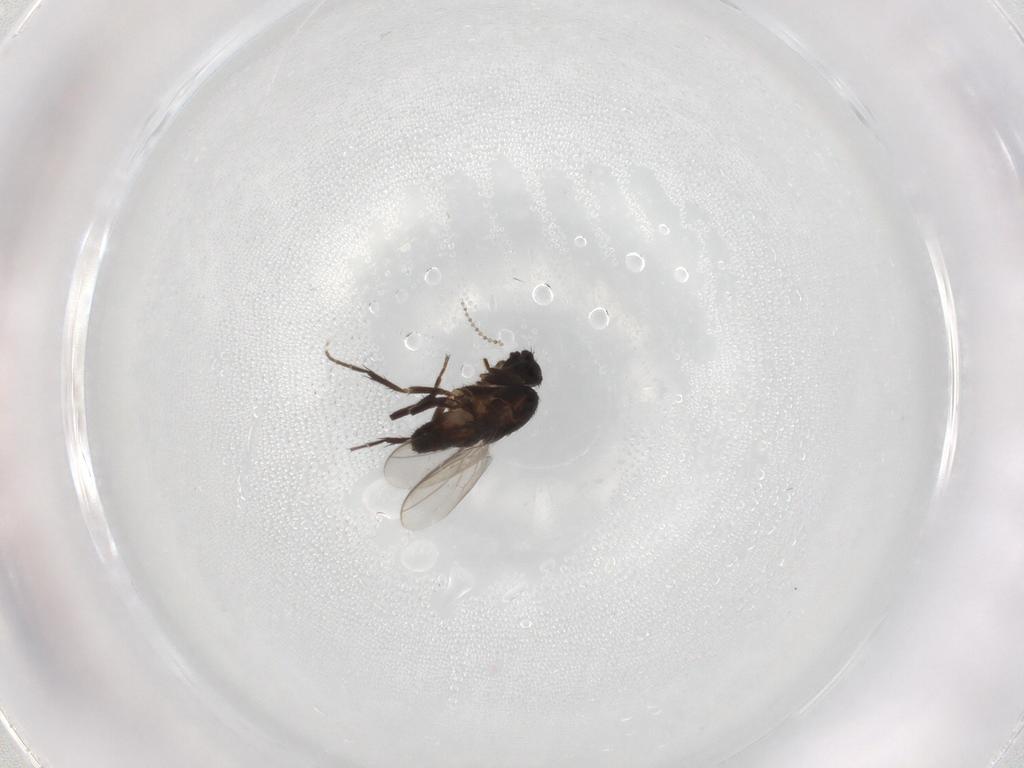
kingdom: Animalia
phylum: Arthropoda
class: Insecta
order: Diptera
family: Sphaeroceridae
